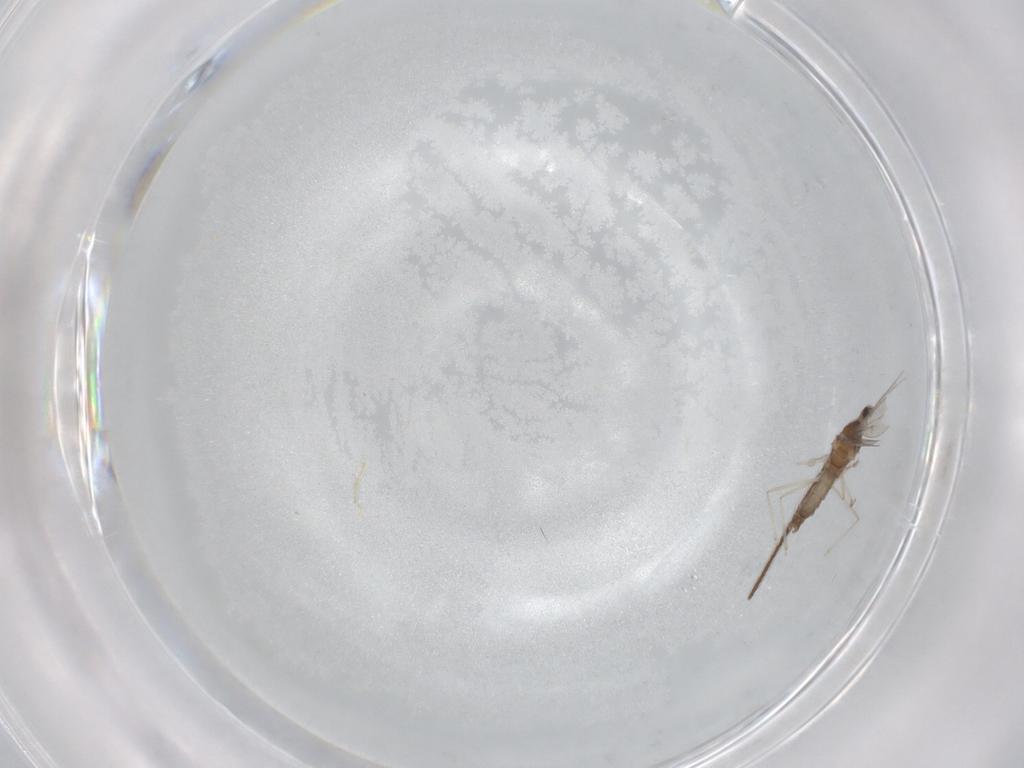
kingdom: Animalia
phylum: Arthropoda
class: Insecta
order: Diptera
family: Cecidomyiidae
